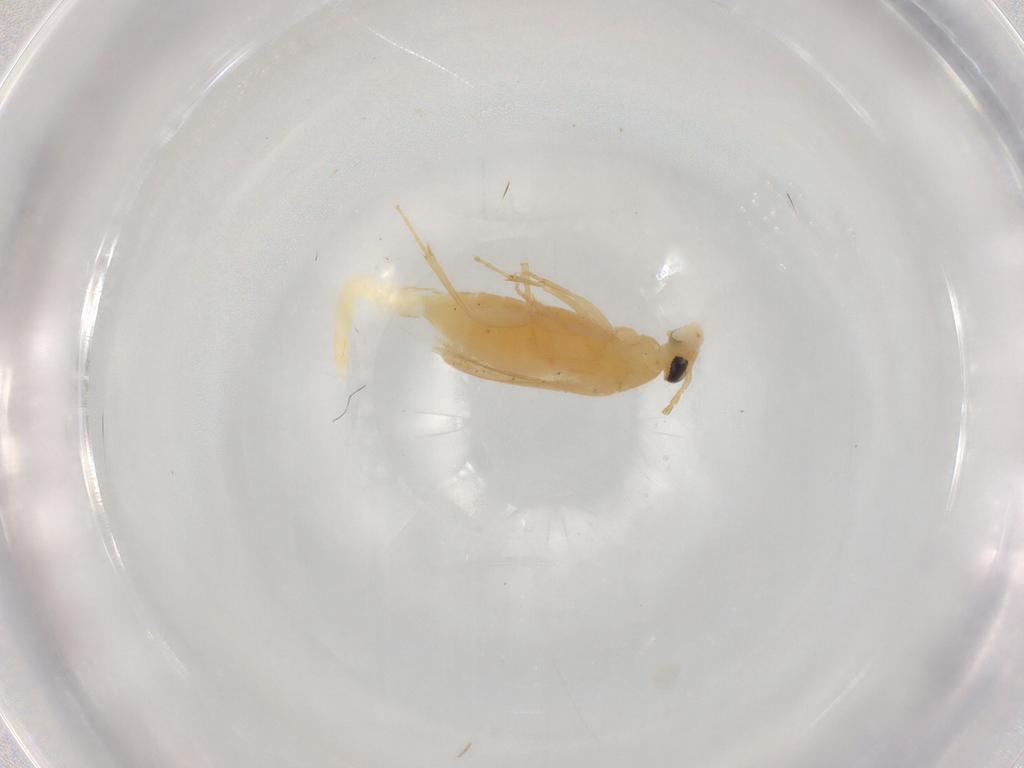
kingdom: Animalia
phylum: Arthropoda
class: Insecta
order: Coleoptera
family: Scraptiidae
